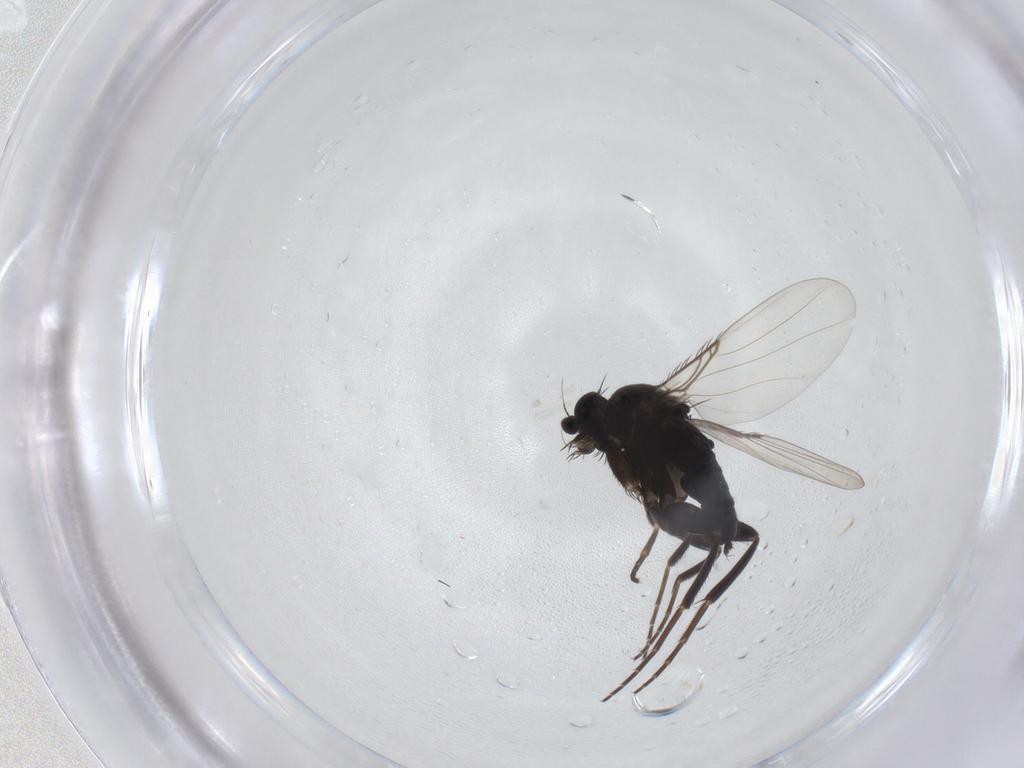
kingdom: Animalia
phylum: Arthropoda
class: Insecta
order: Diptera
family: Phoridae
